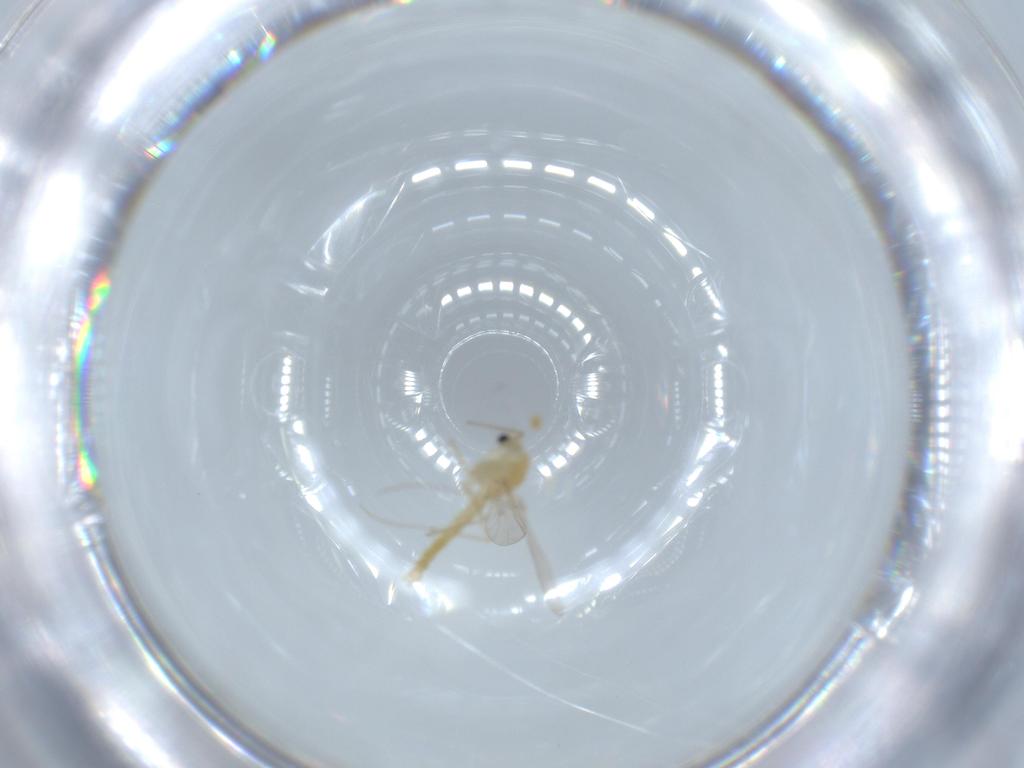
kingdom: Animalia
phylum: Arthropoda
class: Insecta
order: Diptera
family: Chironomidae
